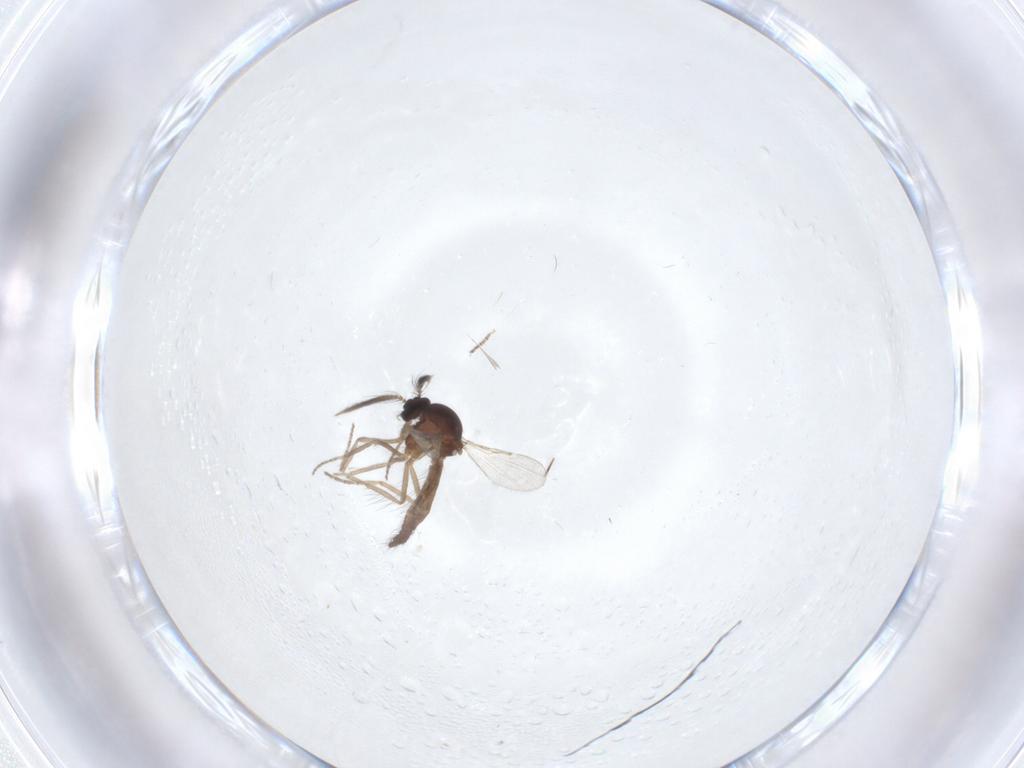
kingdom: Animalia
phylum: Arthropoda
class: Insecta
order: Diptera
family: Ceratopogonidae
